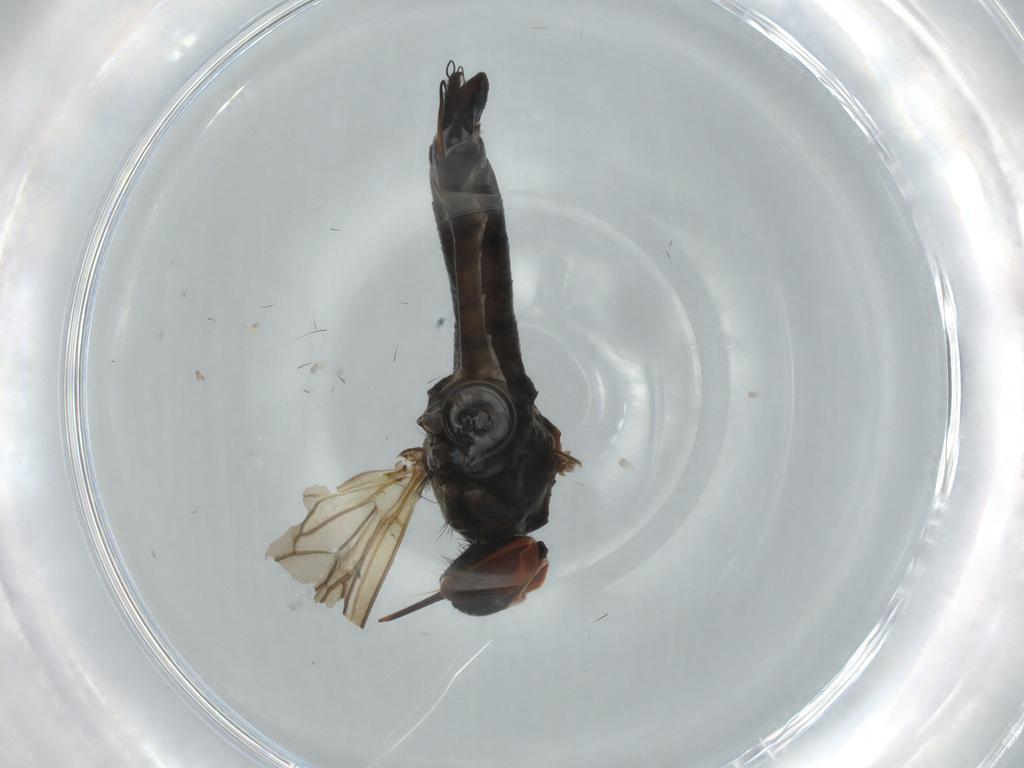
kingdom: Animalia
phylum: Arthropoda
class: Insecta
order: Diptera
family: Empididae
